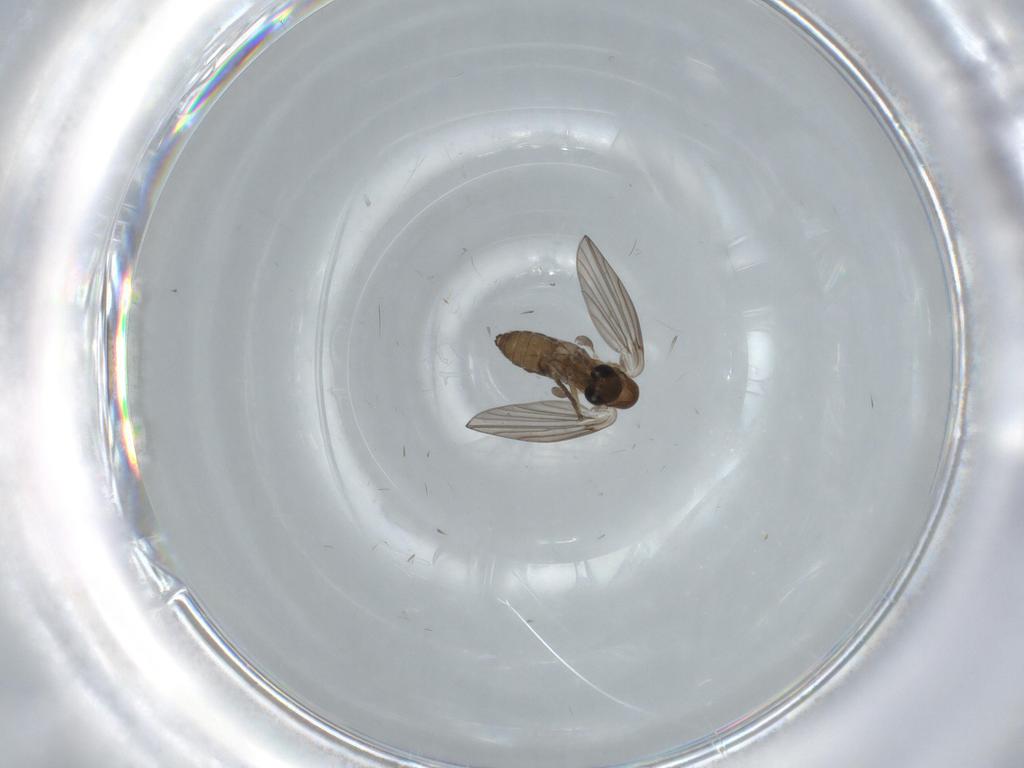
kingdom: Animalia
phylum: Arthropoda
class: Insecta
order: Diptera
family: Psychodidae
